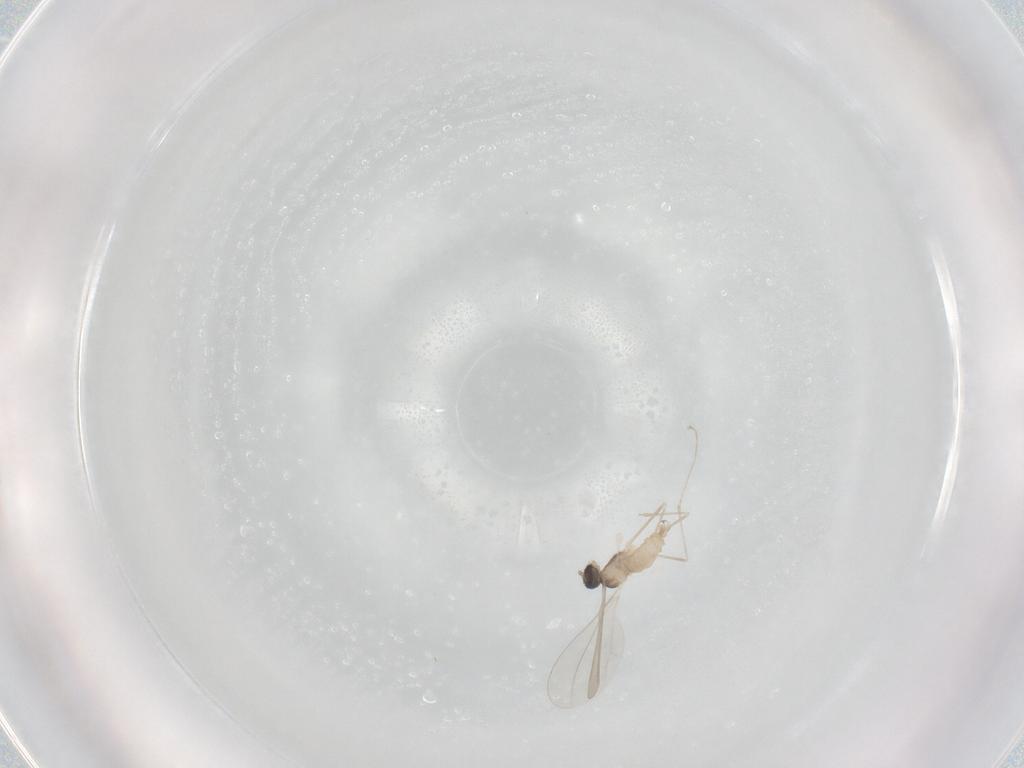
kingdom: Animalia
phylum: Arthropoda
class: Insecta
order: Diptera
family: Cecidomyiidae
